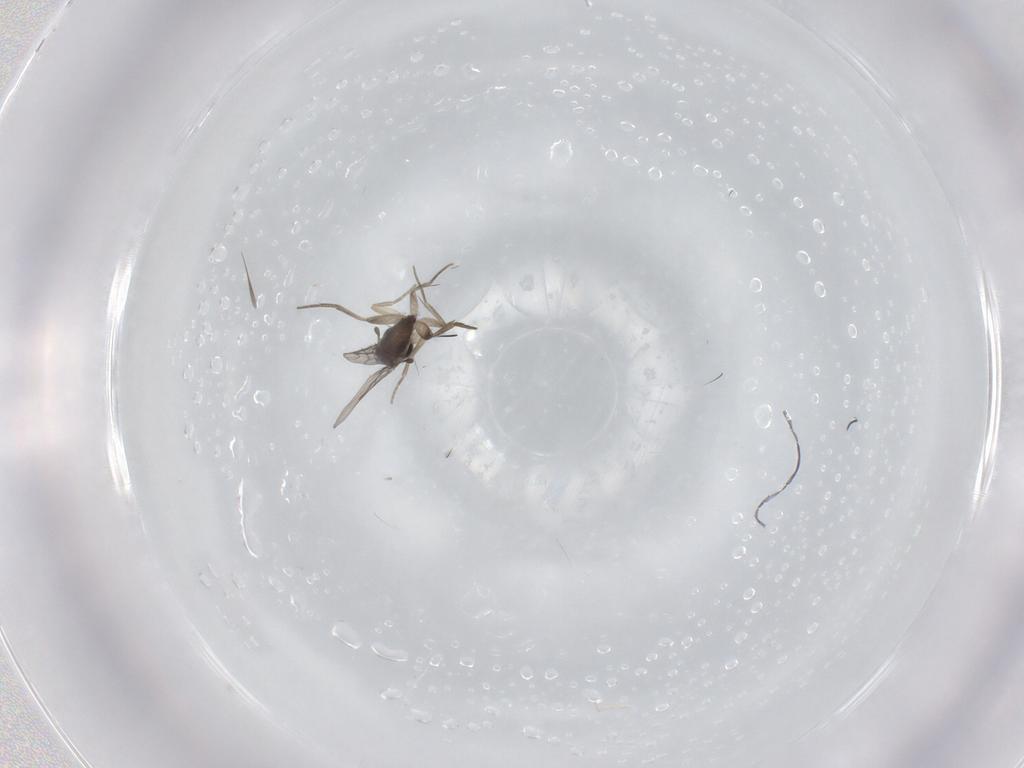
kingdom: Animalia
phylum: Arthropoda
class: Insecta
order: Diptera
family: Phoridae
